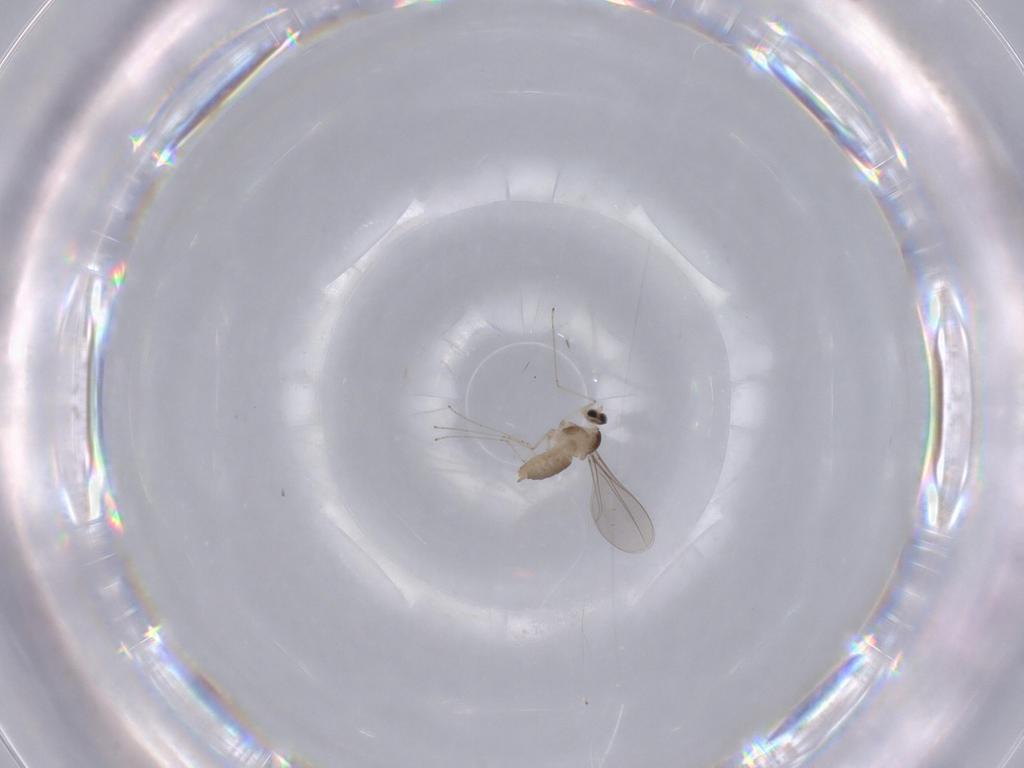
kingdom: Animalia
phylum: Arthropoda
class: Insecta
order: Diptera
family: Cecidomyiidae
